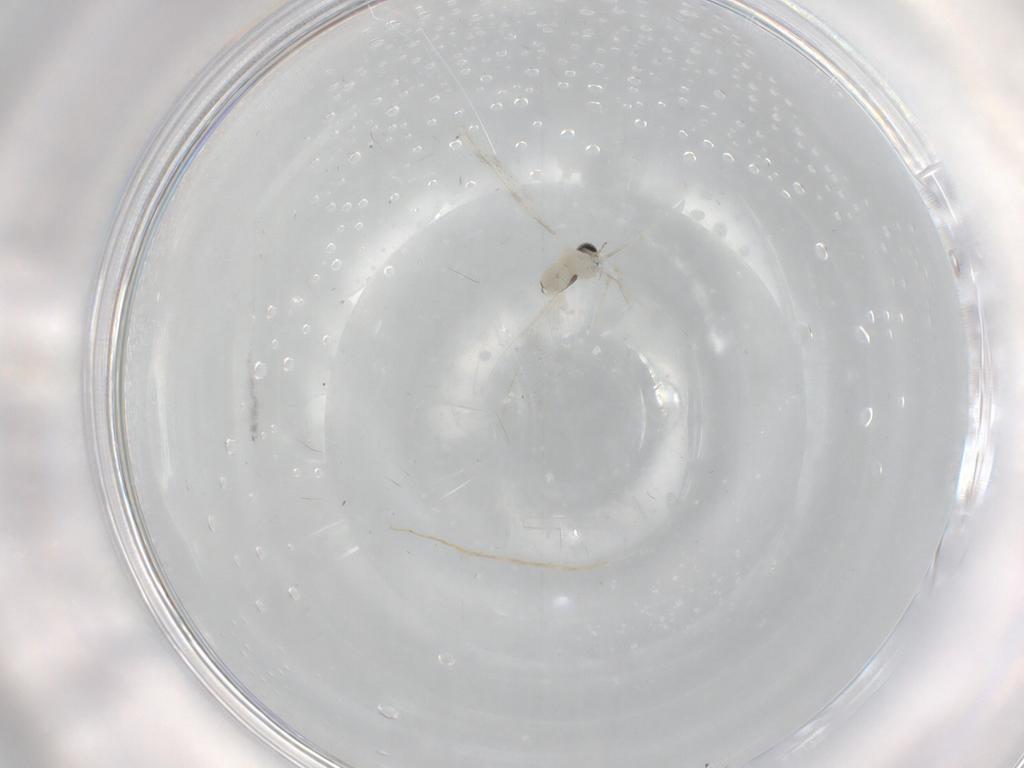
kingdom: Animalia
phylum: Arthropoda
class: Insecta
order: Diptera
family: Cecidomyiidae
